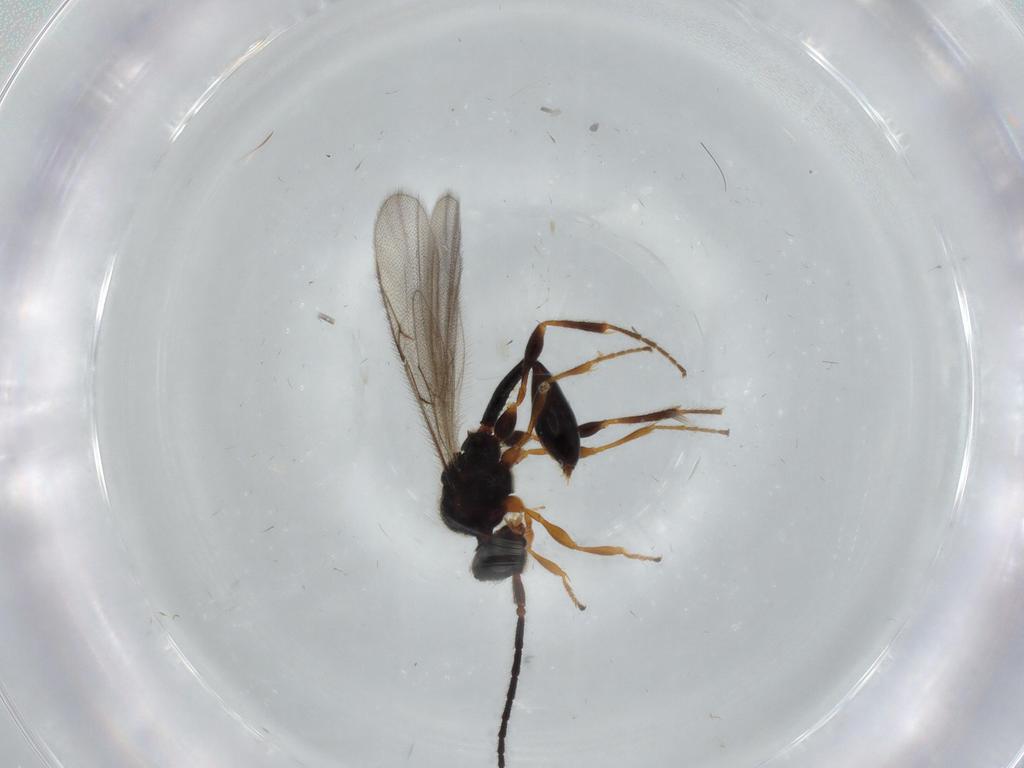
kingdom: Animalia
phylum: Arthropoda
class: Insecta
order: Hymenoptera
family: Diapriidae
